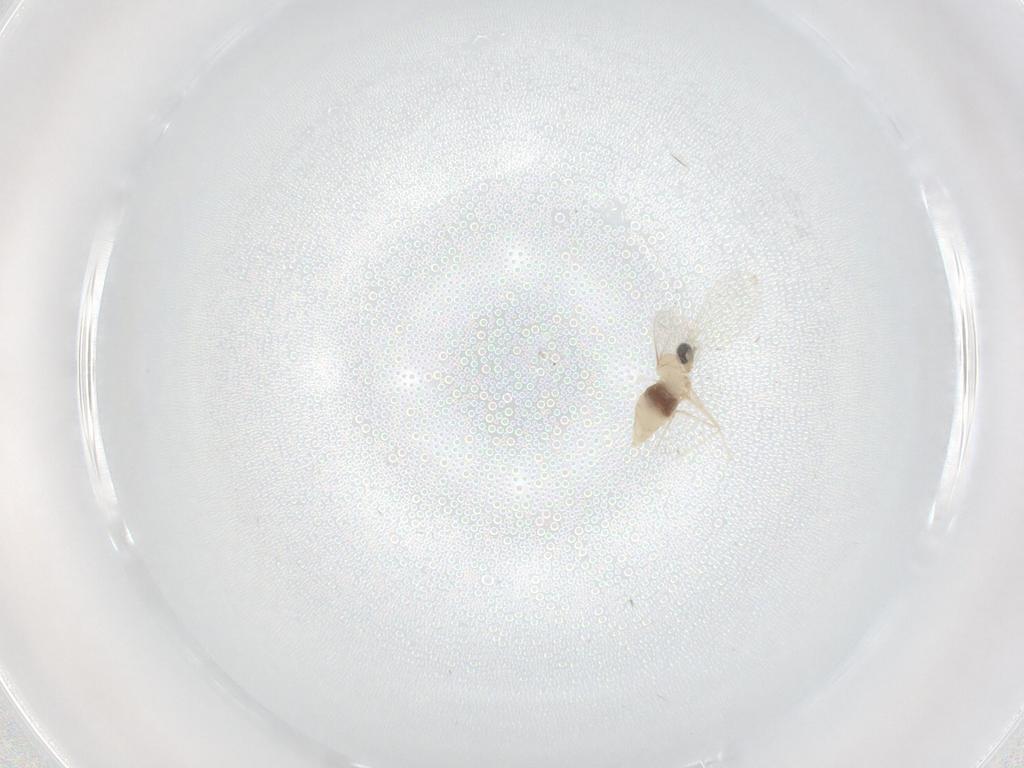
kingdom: Animalia
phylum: Arthropoda
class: Insecta
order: Diptera
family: Cecidomyiidae
